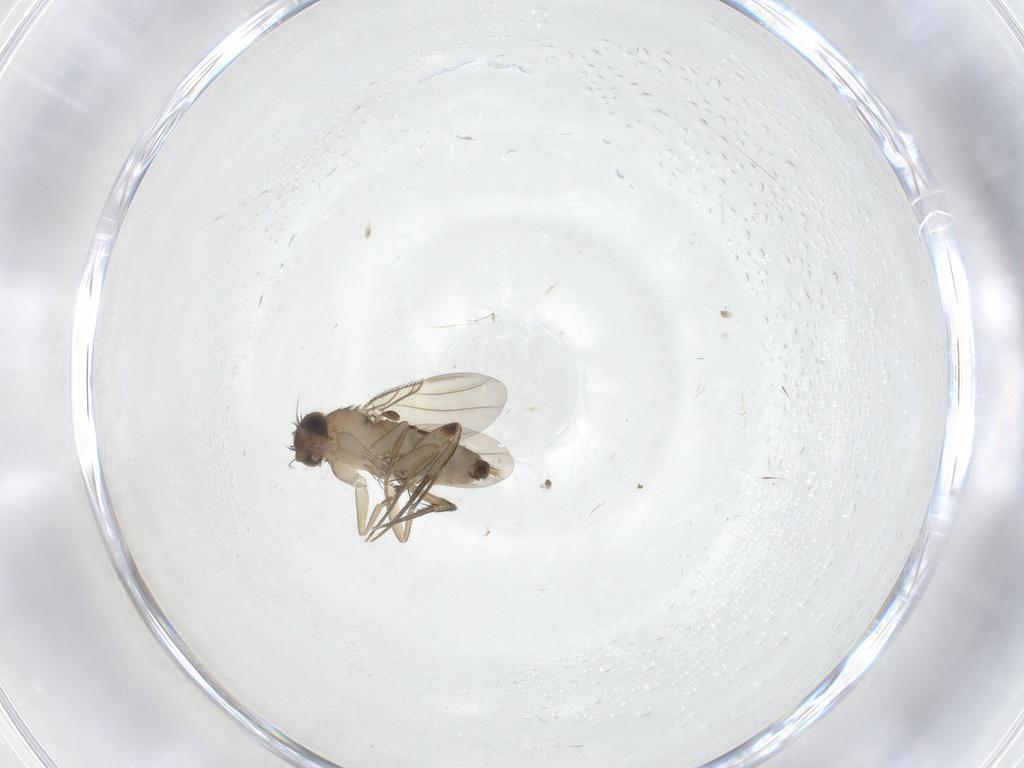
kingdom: Animalia
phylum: Arthropoda
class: Insecta
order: Diptera
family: Phoridae
